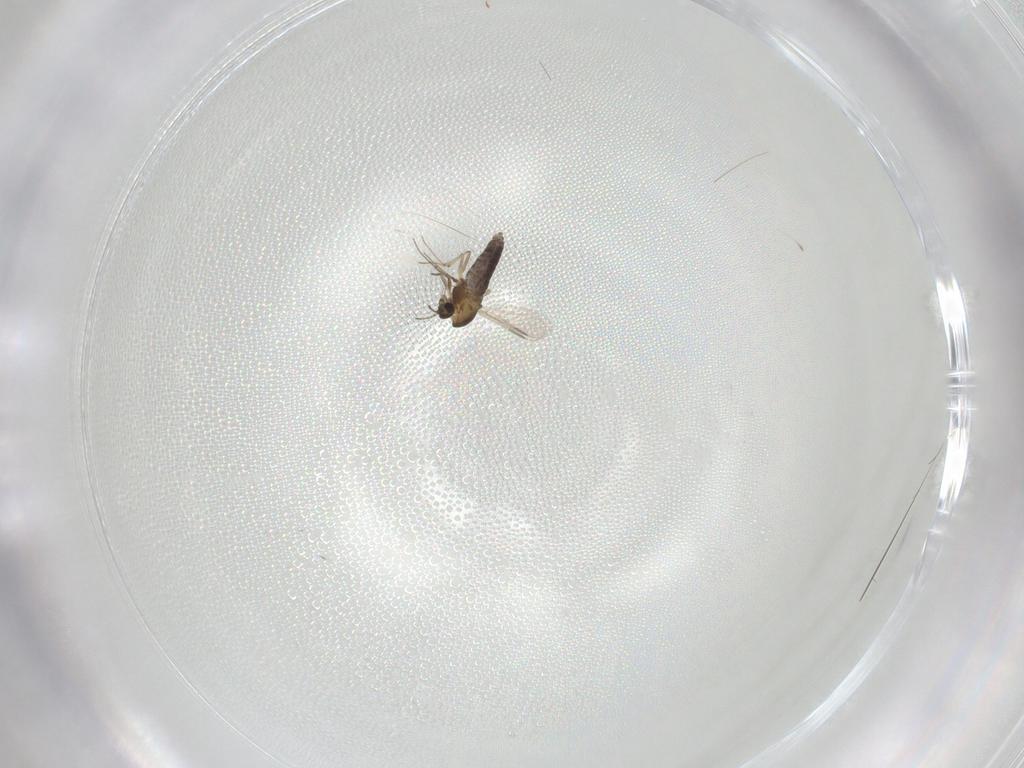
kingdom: Animalia
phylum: Arthropoda
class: Insecta
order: Diptera
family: Chironomidae
